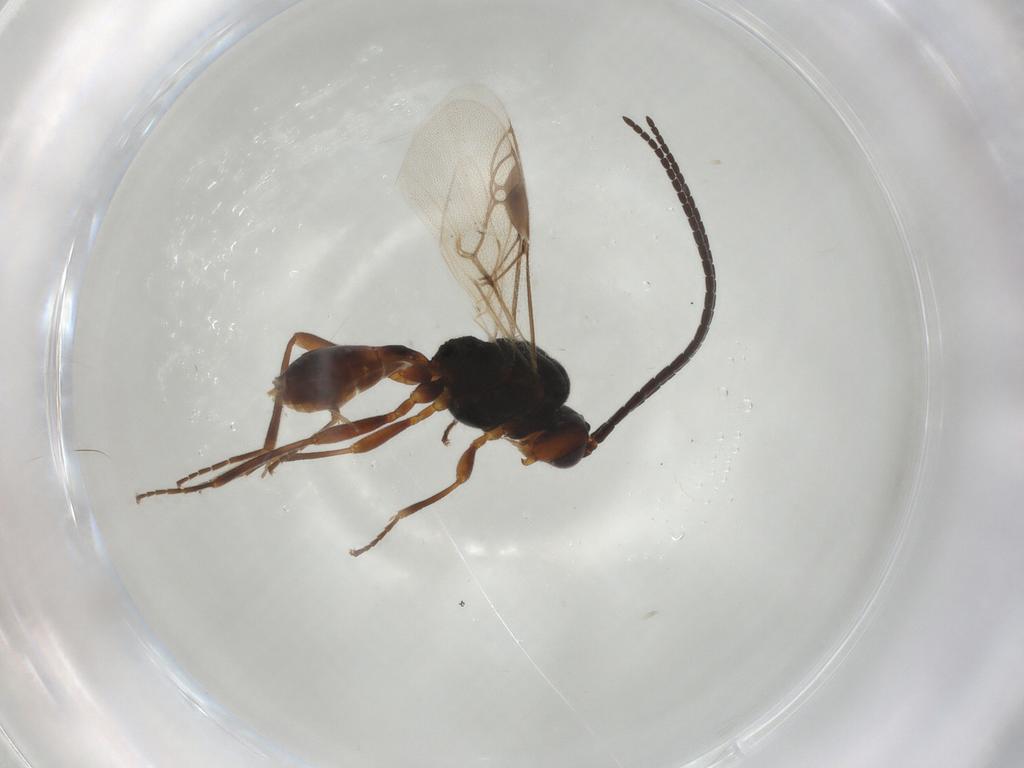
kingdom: Animalia
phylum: Arthropoda
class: Insecta
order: Hymenoptera
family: Braconidae
